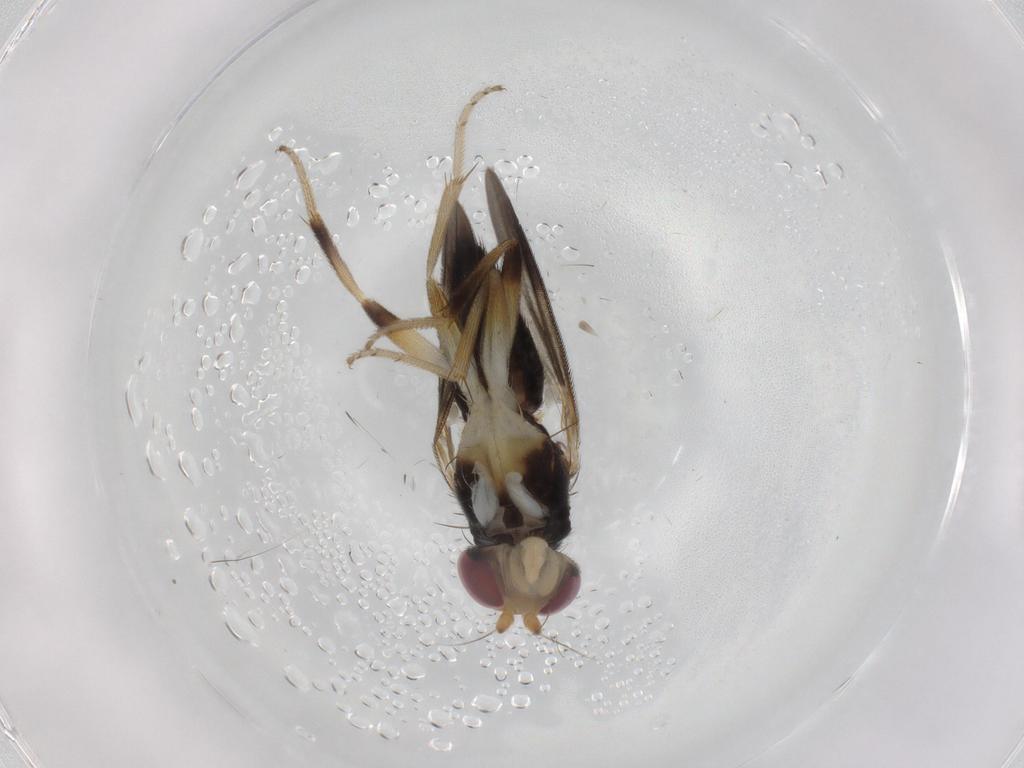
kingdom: Animalia
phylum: Arthropoda
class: Insecta
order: Diptera
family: Clusiidae
